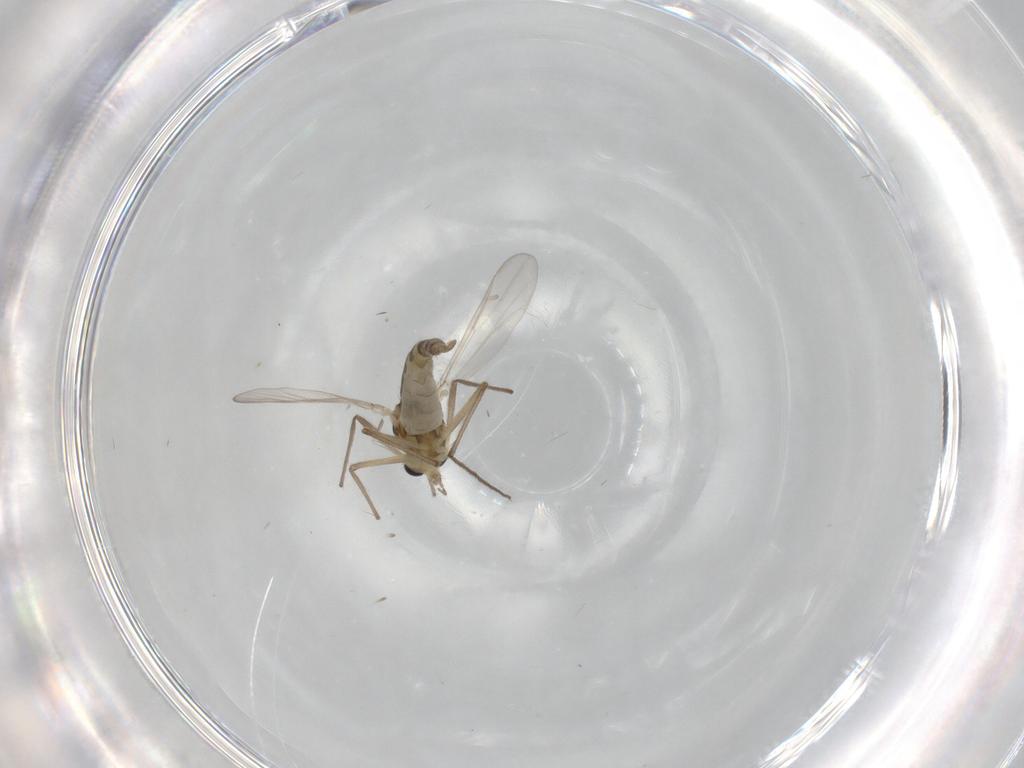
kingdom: Animalia
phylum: Arthropoda
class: Insecta
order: Diptera
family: Chironomidae
